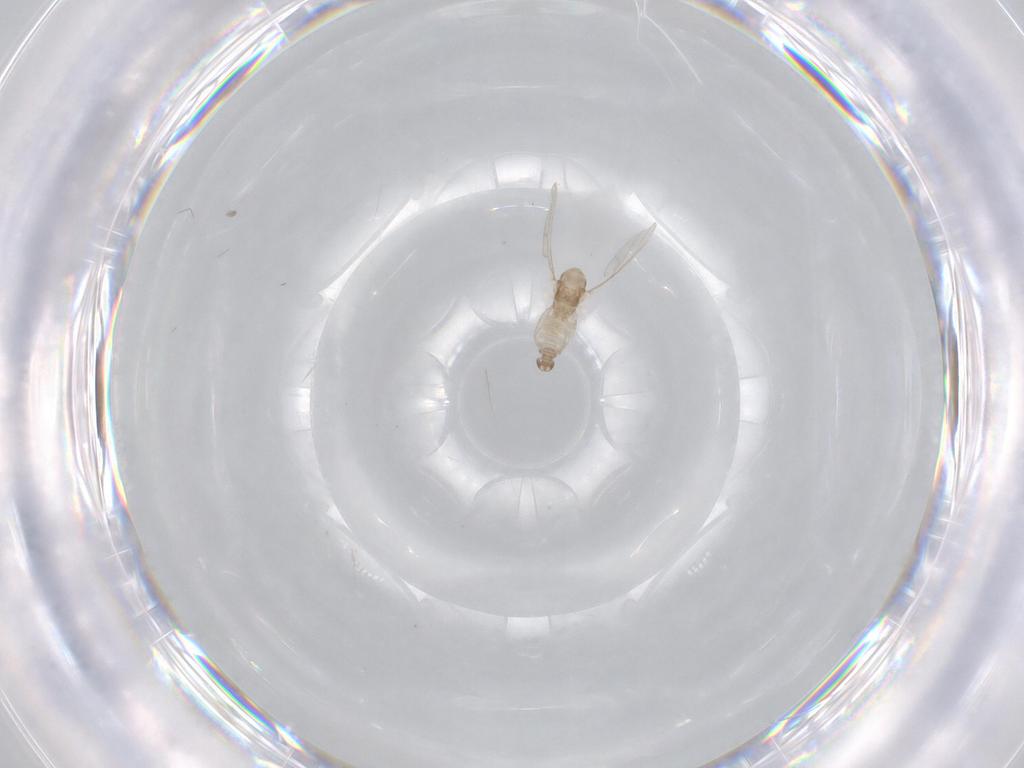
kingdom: Animalia
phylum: Arthropoda
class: Insecta
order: Diptera
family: Cecidomyiidae
